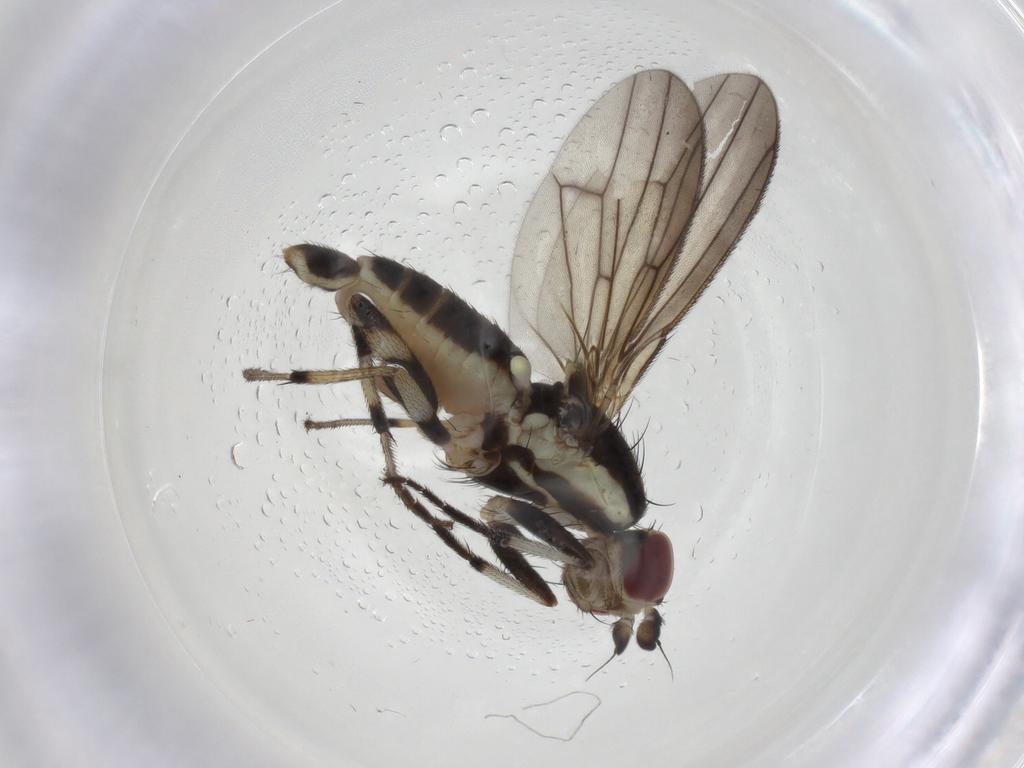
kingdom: Animalia
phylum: Arthropoda
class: Insecta
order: Diptera
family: Pseudopomyzidae
